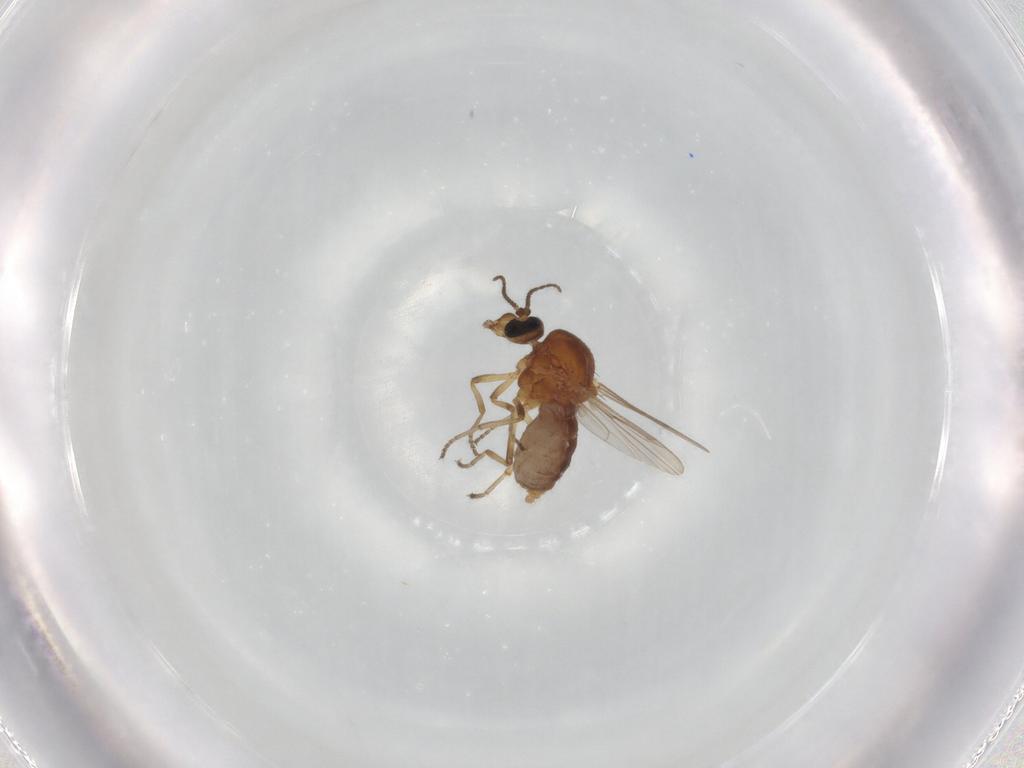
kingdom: Animalia
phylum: Arthropoda
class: Insecta
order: Diptera
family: Ceratopogonidae
